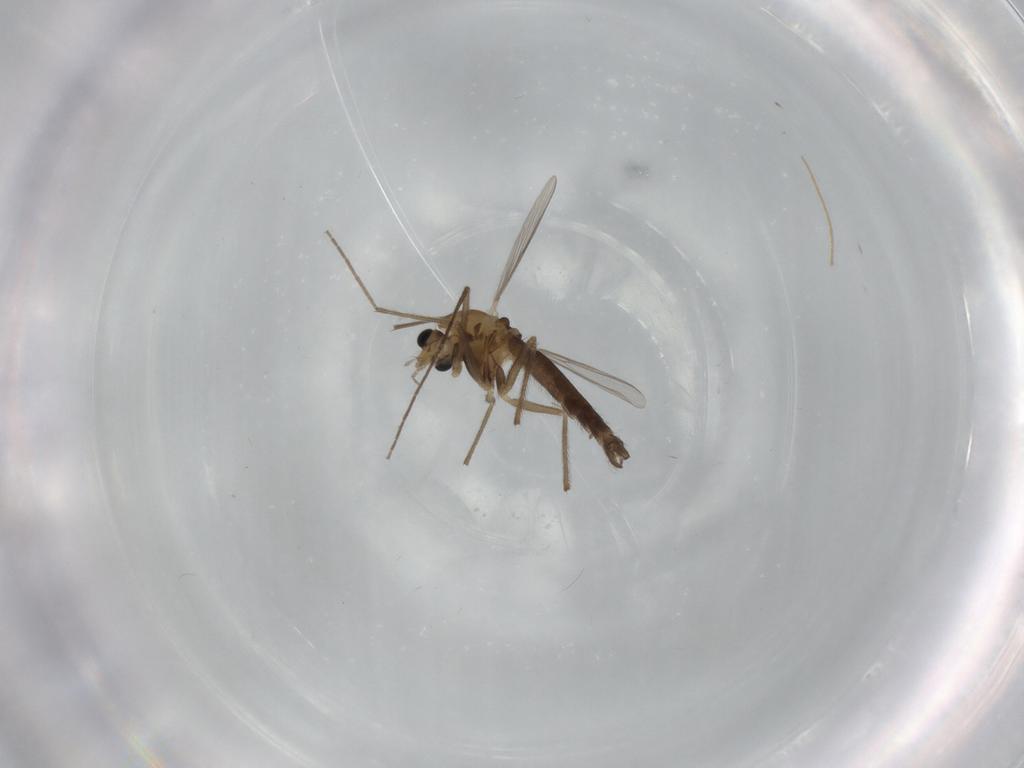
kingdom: Animalia
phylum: Arthropoda
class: Insecta
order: Diptera
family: Chironomidae
